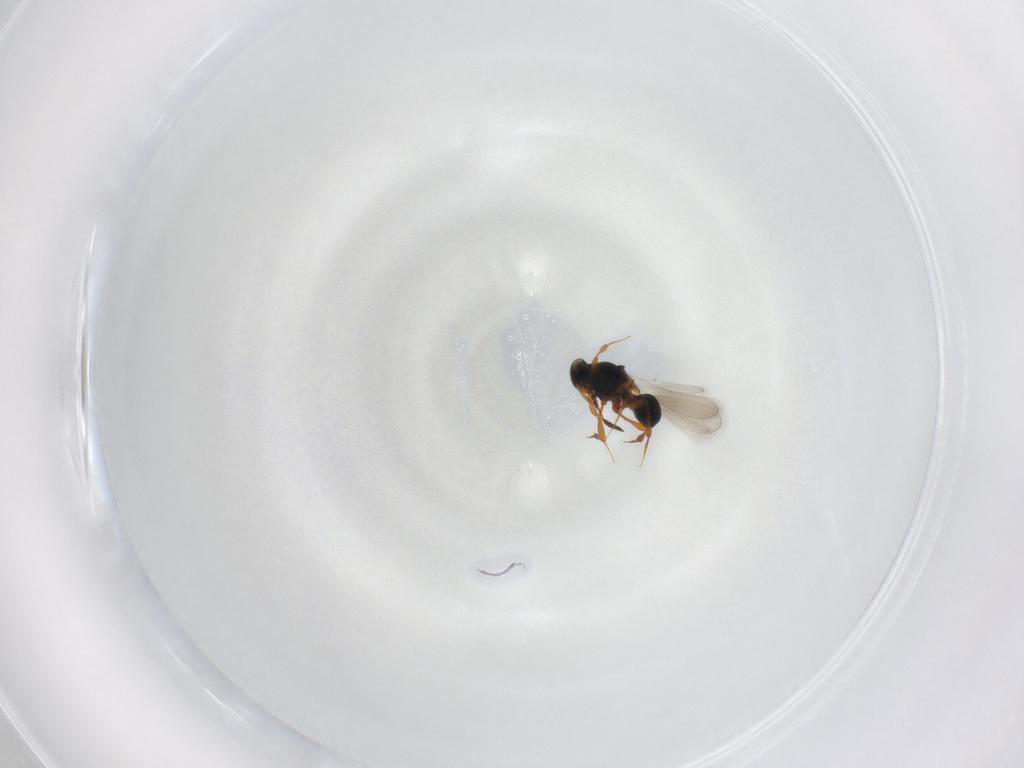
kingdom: Animalia
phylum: Arthropoda
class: Insecta
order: Hymenoptera
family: Platygastridae
